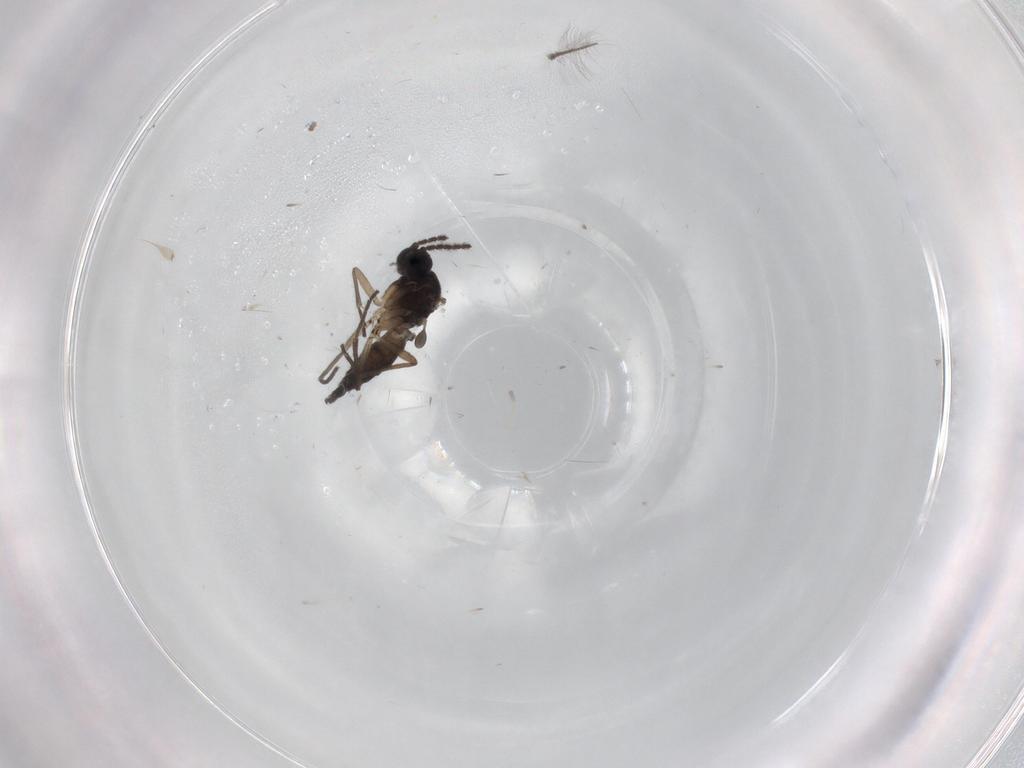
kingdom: Animalia
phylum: Arthropoda
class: Insecta
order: Diptera
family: Sciaridae
